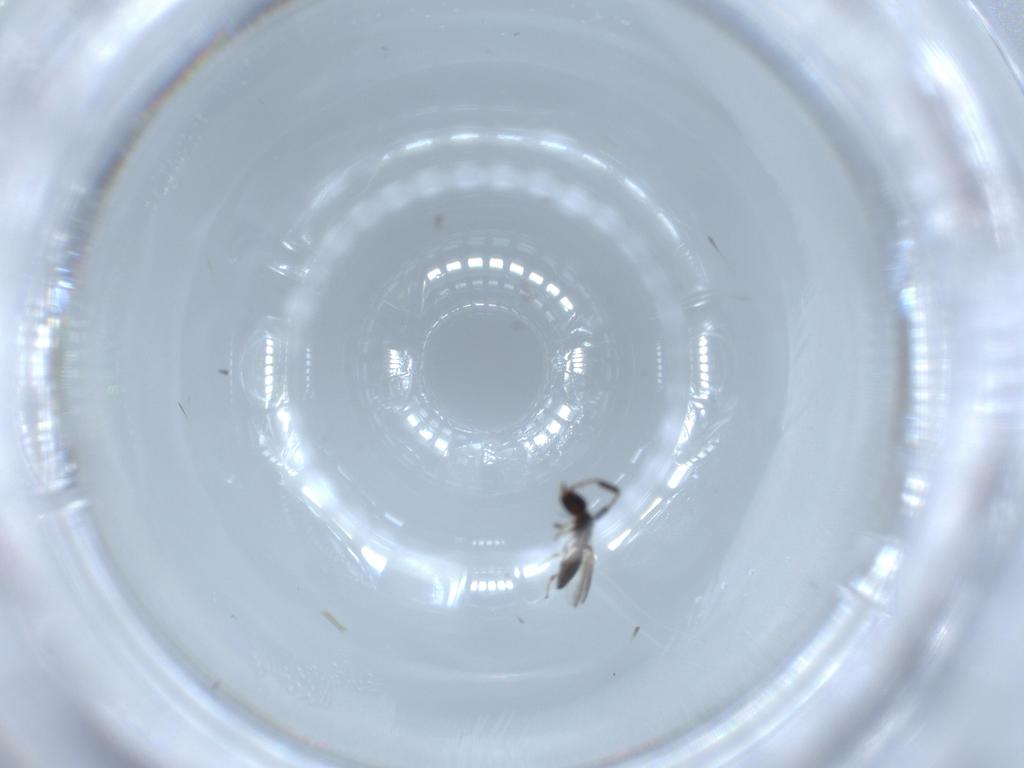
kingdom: Animalia
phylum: Arthropoda
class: Insecta
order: Hymenoptera
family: Diapriidae
